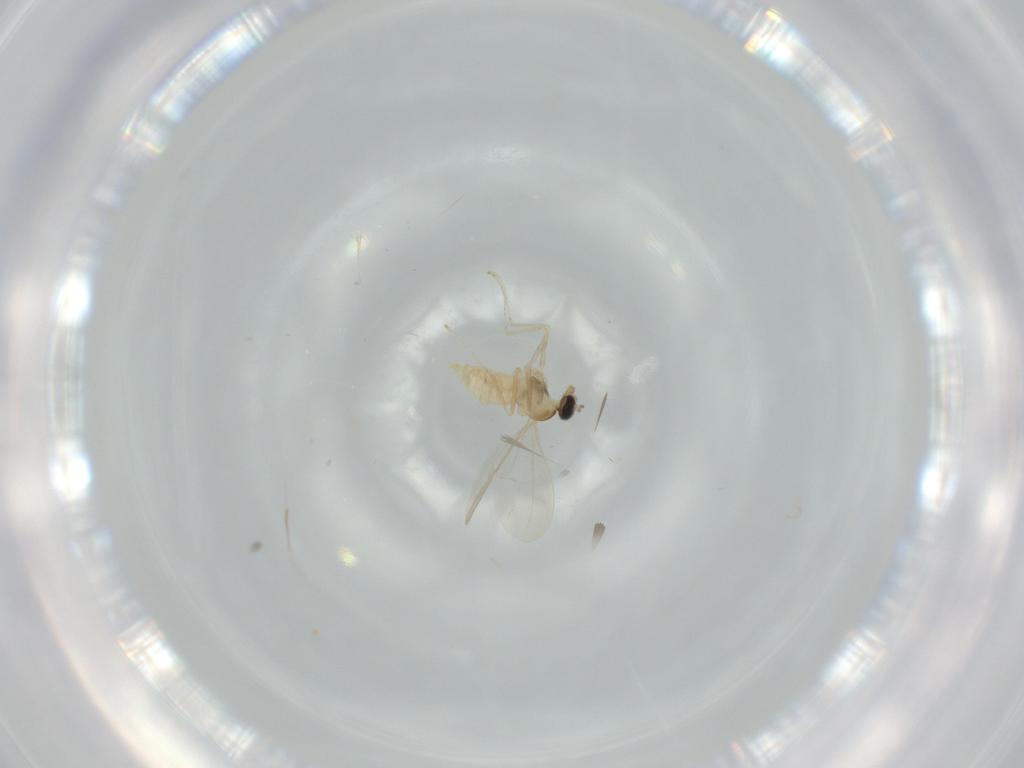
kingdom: Animalia
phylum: Arthropoda
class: Insecta
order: Diptera
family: Cecidomyiidae
